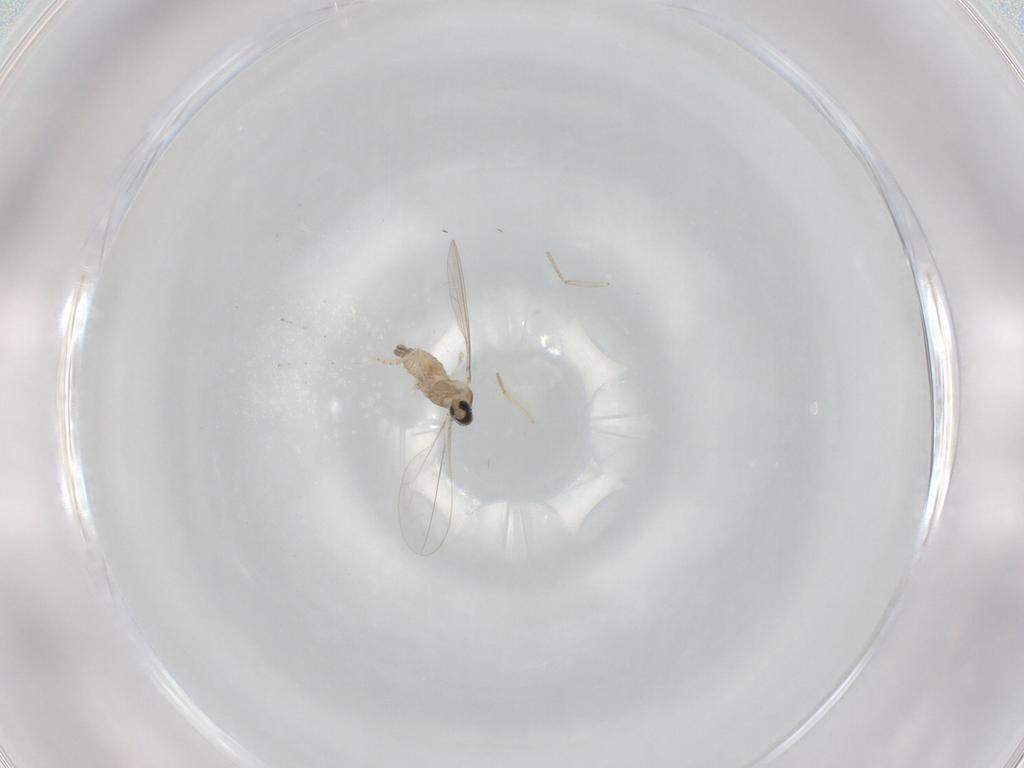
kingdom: Animalia
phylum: Arthropoda
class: Insecta
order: Diptera
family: Cecidomyiidae
